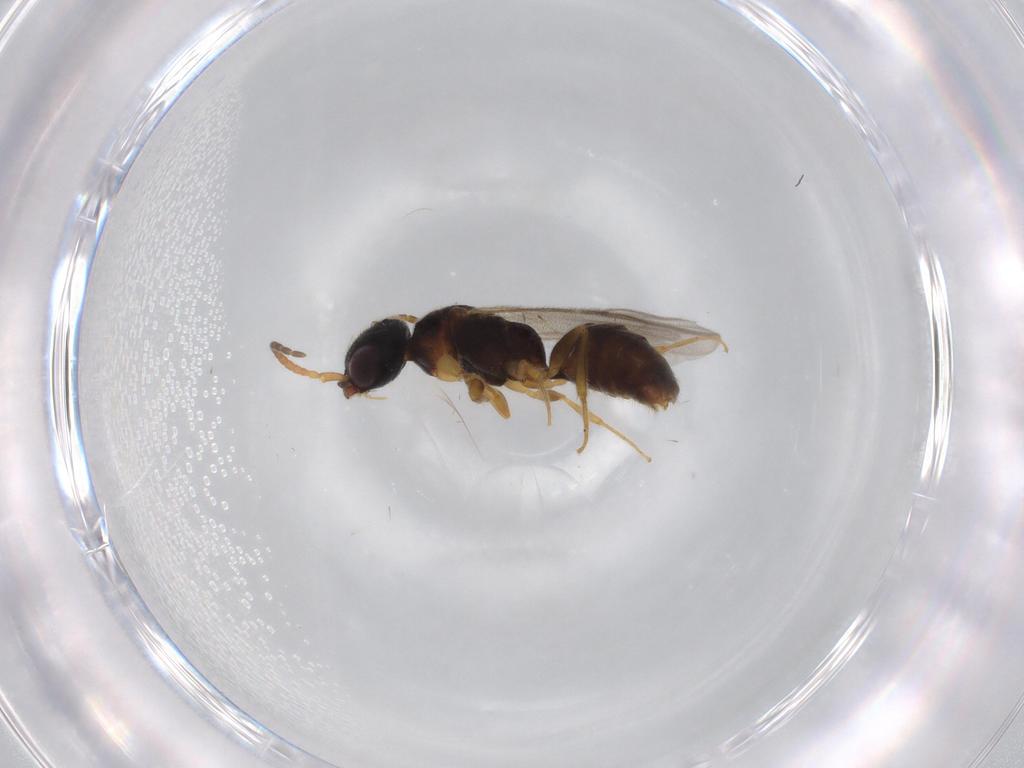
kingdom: Animalia
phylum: Arthropoda
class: Insecta
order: Hymenoptera
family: Bethylidae
